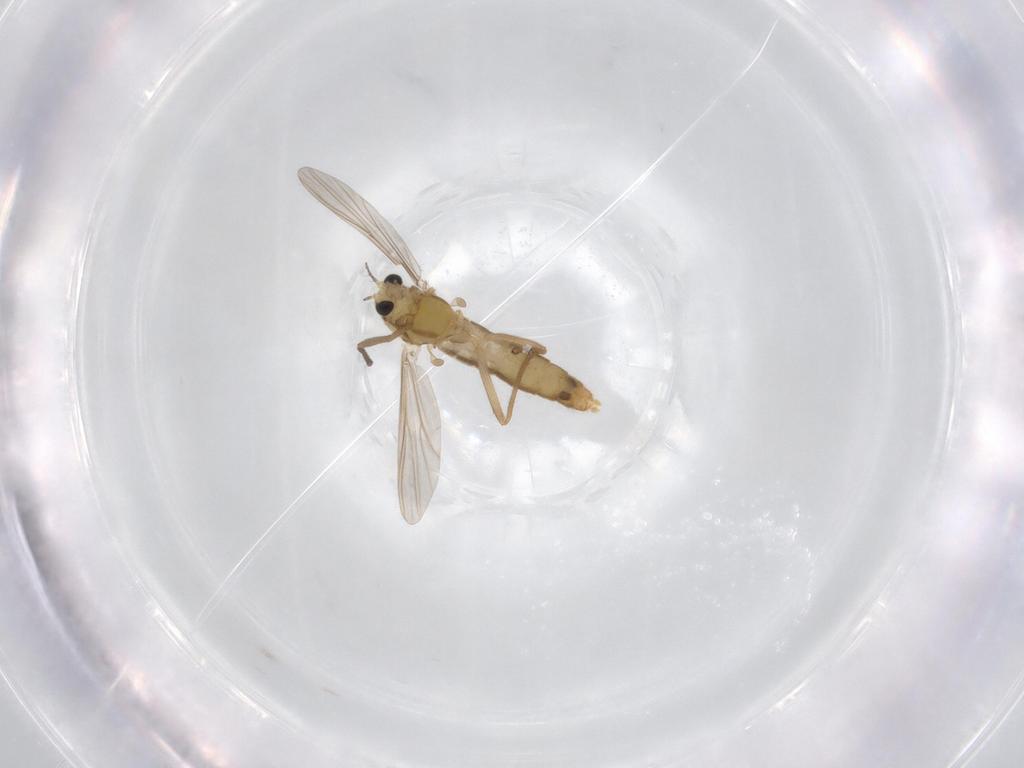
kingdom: Animalia
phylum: Arthropoda
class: Insecta
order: Diptera
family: Chironomidae
